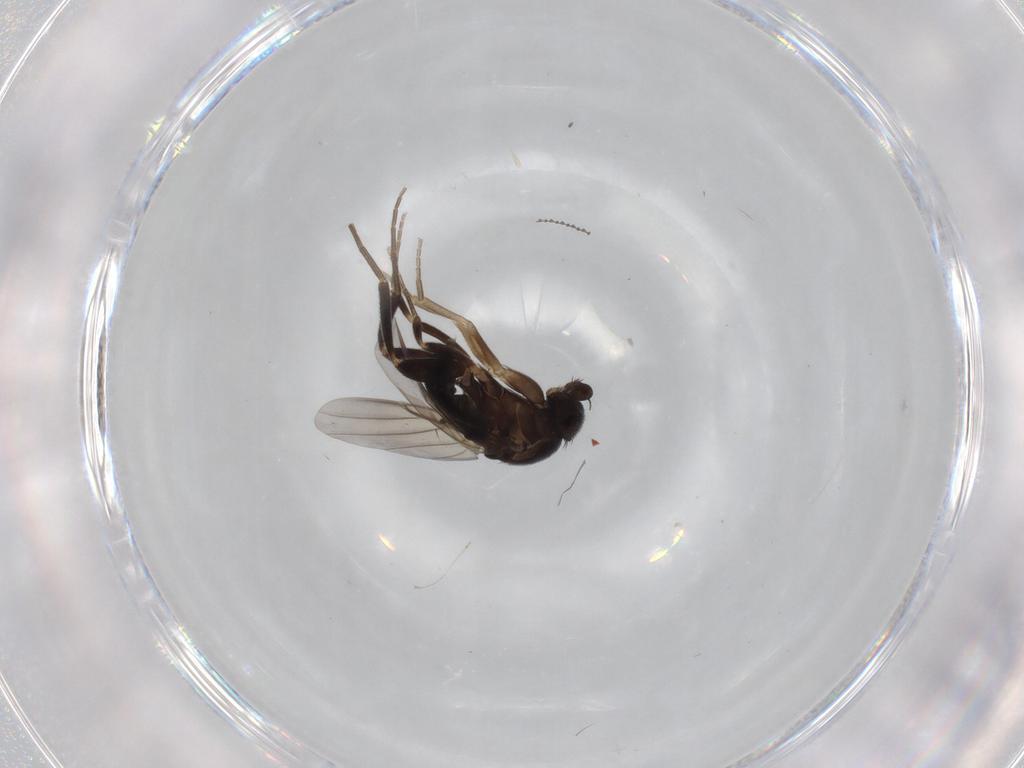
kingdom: Animalia
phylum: Arthropoda
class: Insecta
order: Diptera
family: Sciaridae
